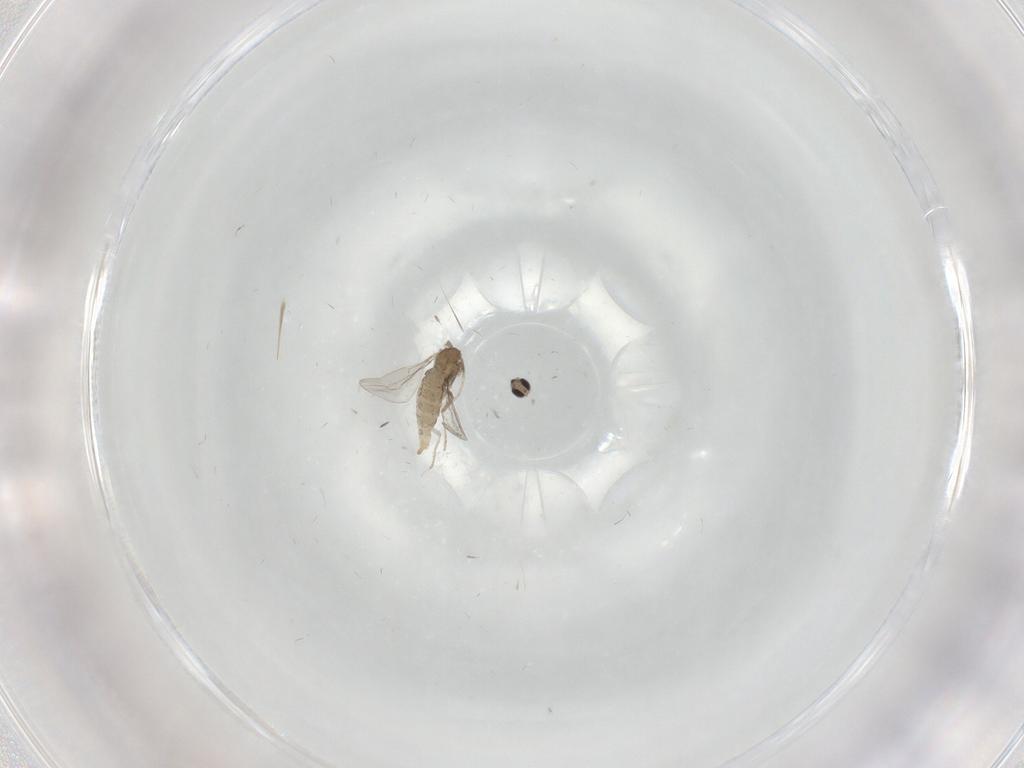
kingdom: Animalia
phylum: Arthropoda
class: Insecta
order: Diptera
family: Cecidomyiidae
